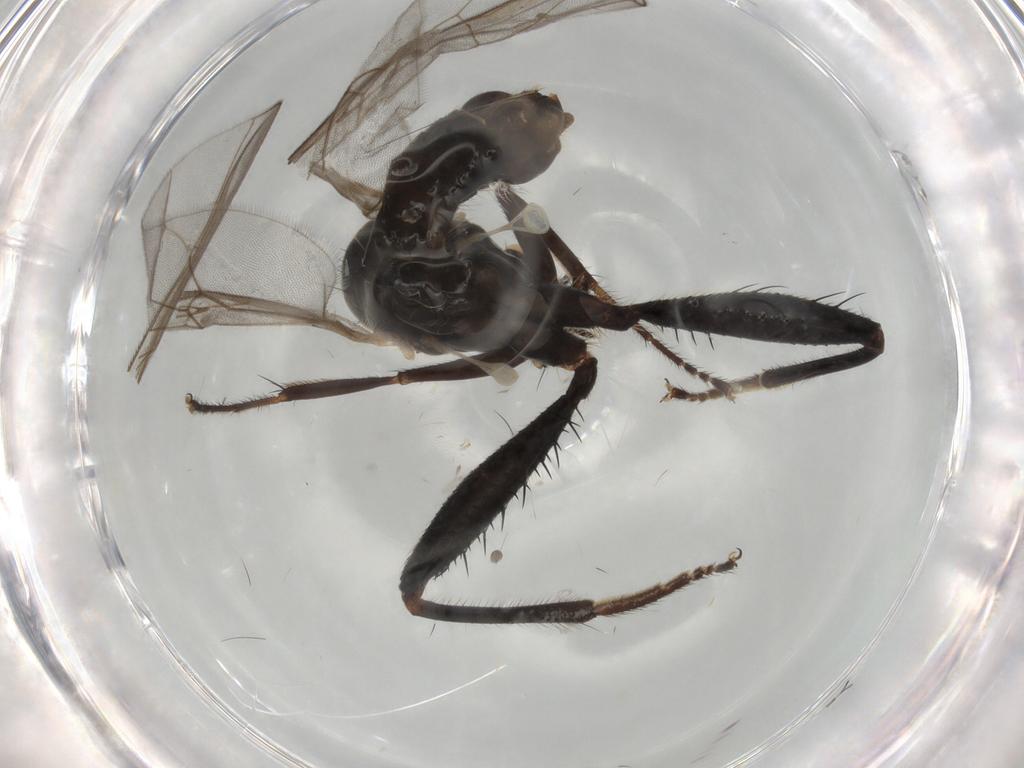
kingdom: Animalia
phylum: Arthropoda
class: Insecta
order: Diptera
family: Hybotidae
